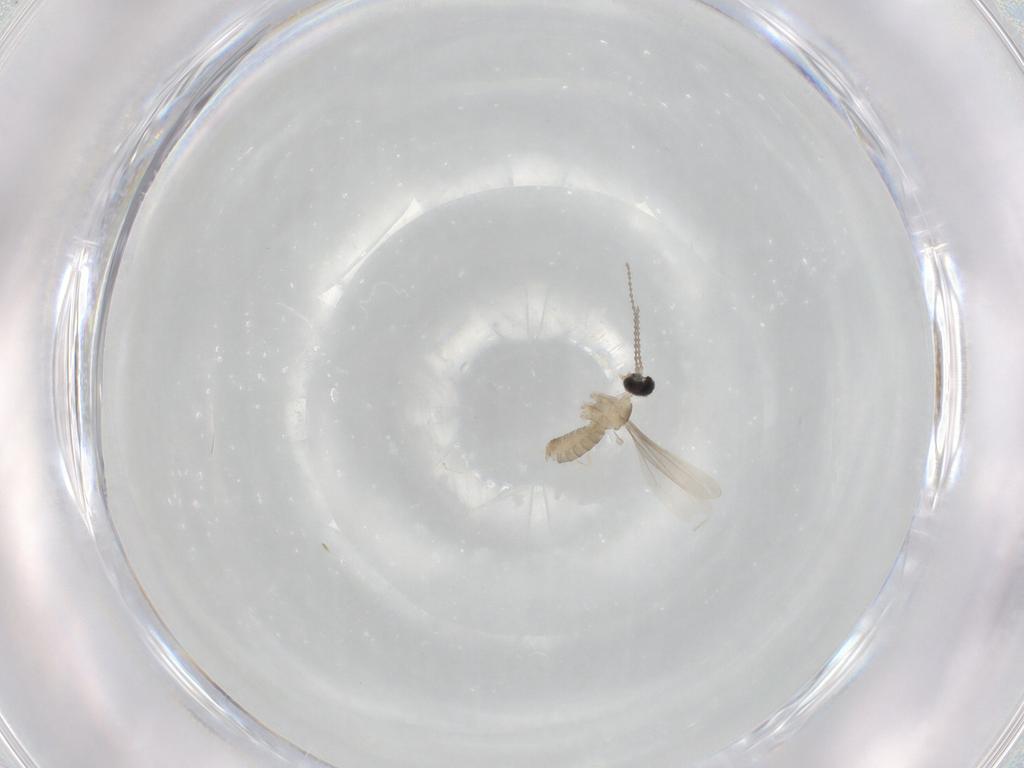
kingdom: Animalia
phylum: Arthropoda
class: Insecta
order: Diptera
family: Cecidomyiidae
